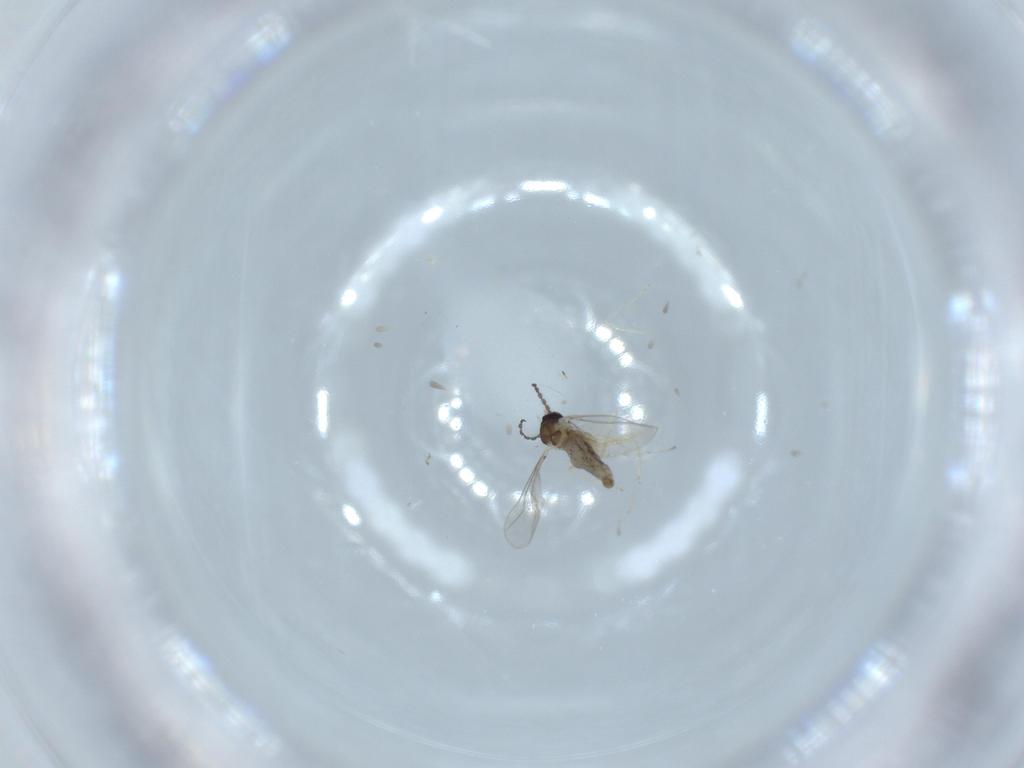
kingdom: Animalia
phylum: Arthropoda
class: Insecta
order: Diptera
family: Cecidomyiidae
